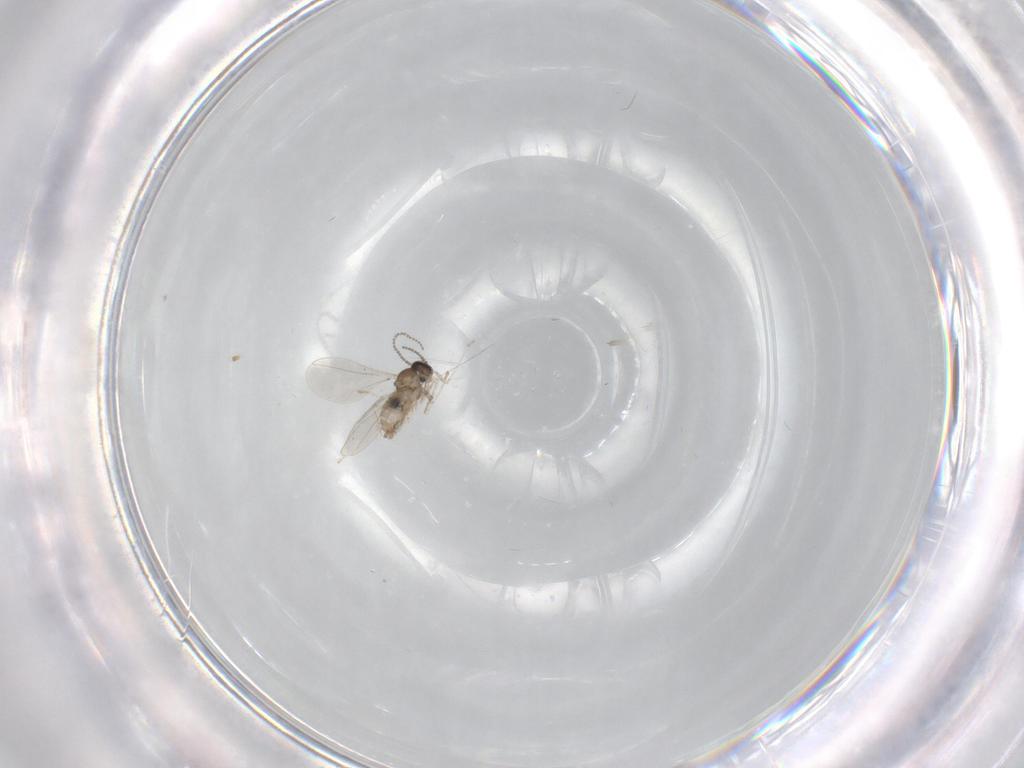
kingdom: Animalia
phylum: Arthropoda
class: Insecta
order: Diptera
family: Cecidomyiidae
